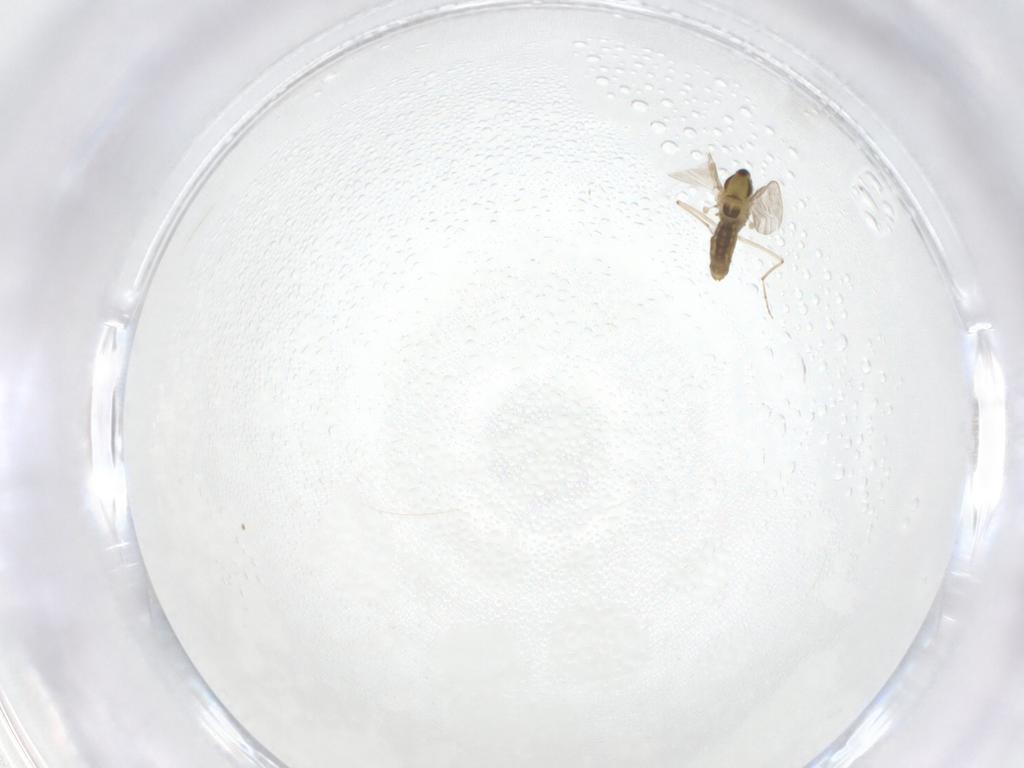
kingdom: Animalia
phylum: Arthropoda
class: Insecta
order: Diptera
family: Chironomidae
